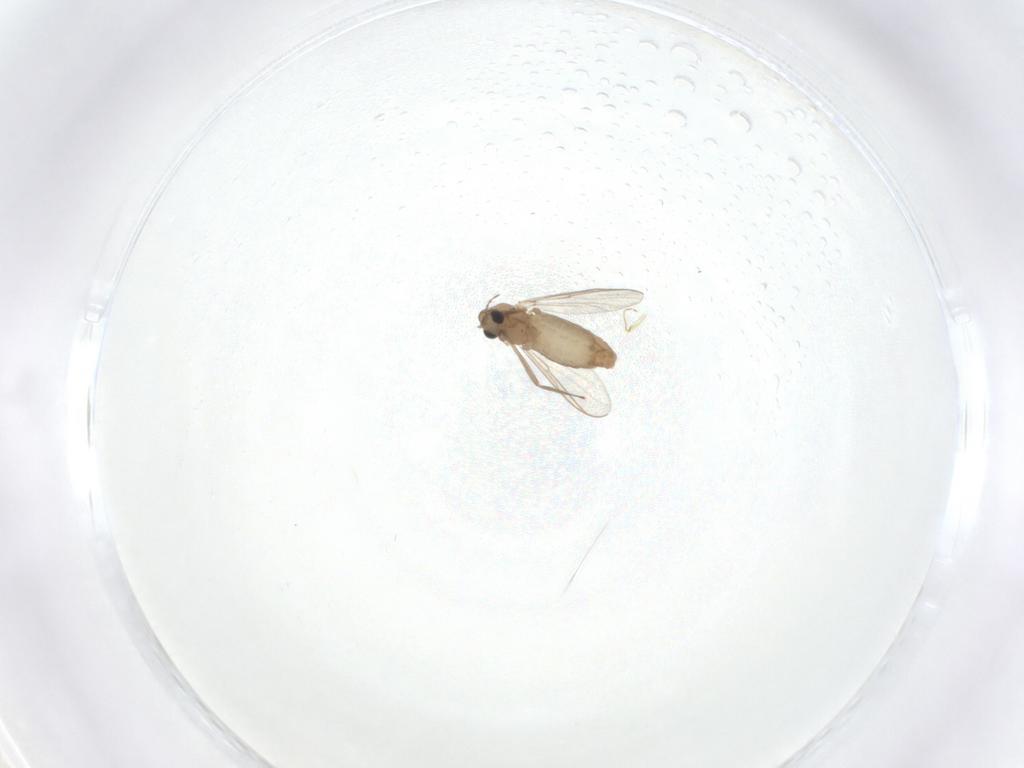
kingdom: Animalia
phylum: Arthropoda
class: Insecta
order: Diptera
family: Chironomidae
